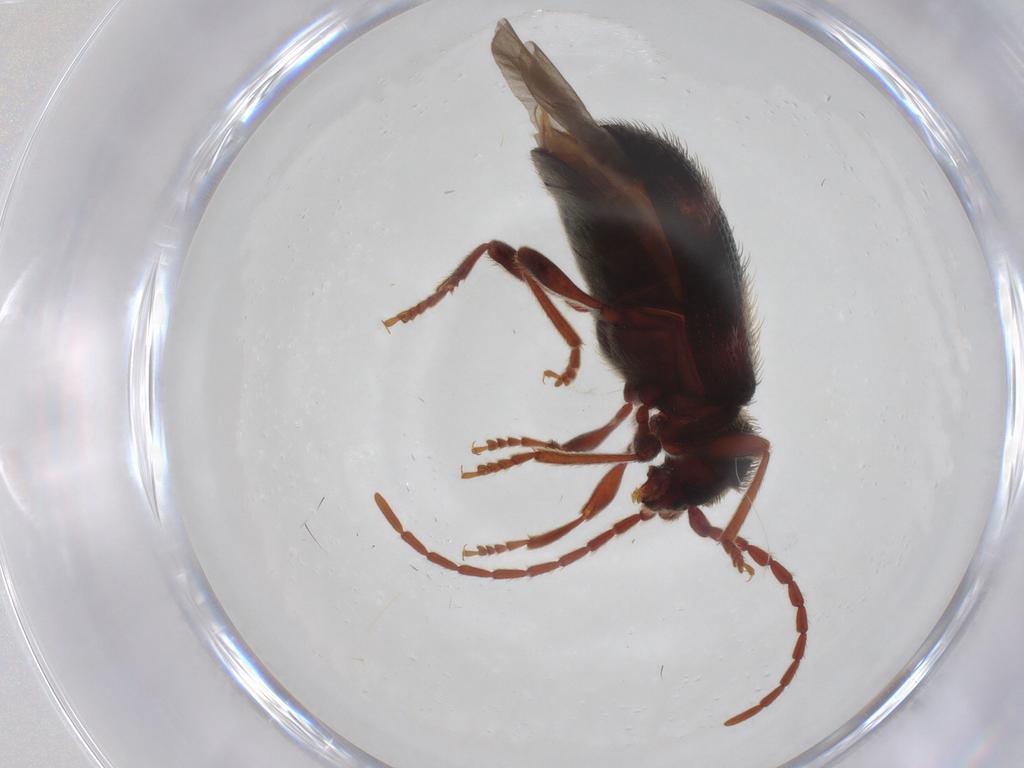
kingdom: Animalia
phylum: Arthropoda
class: Insecta
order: Coleoptera
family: Ptinidae
